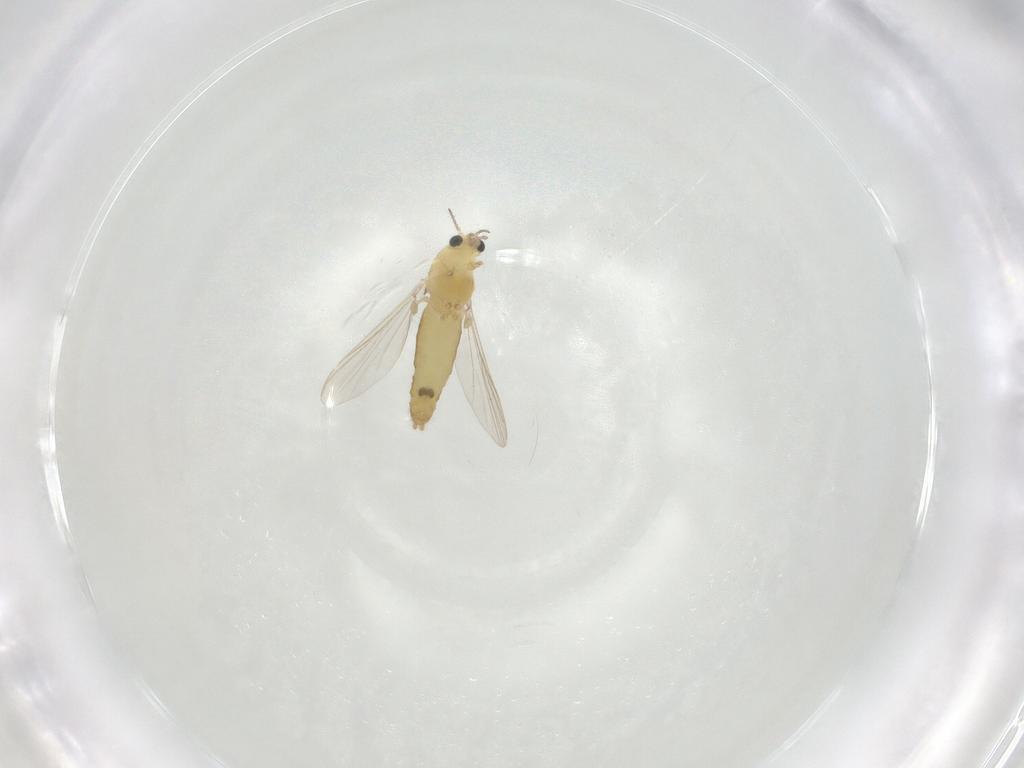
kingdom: Animalia
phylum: Arthropoda
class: Insecta
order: Diptera
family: Chironomidae
